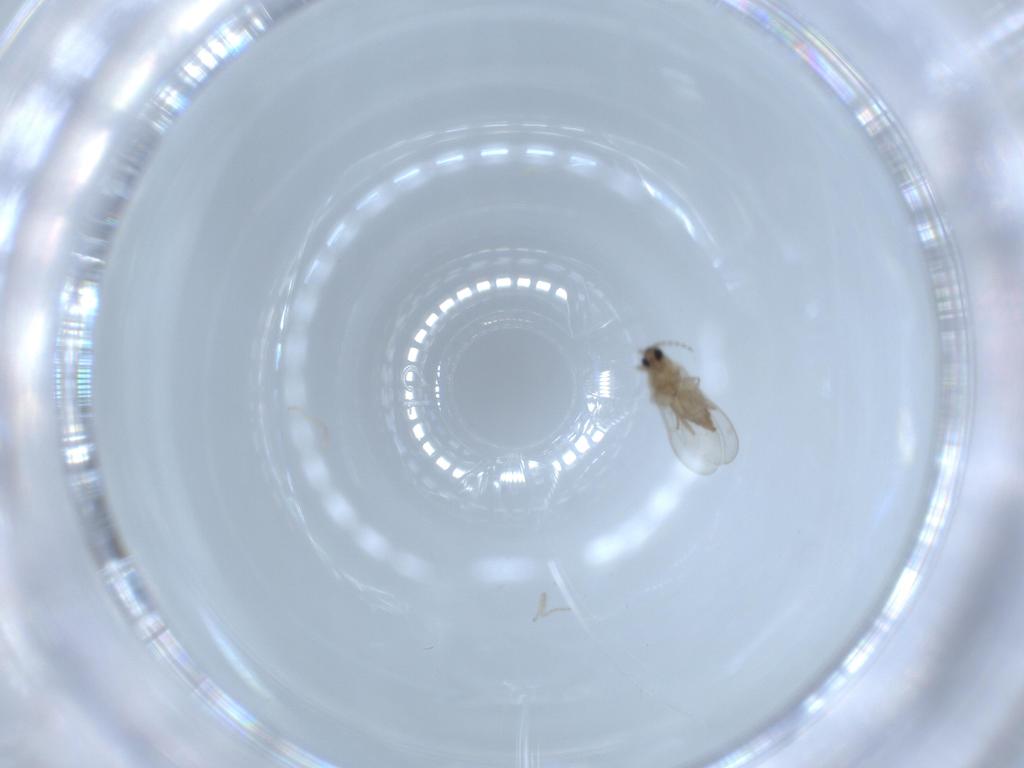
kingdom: Animalia
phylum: Arthropoda
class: Insecta
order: Diptera
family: Cecidomyiidae
